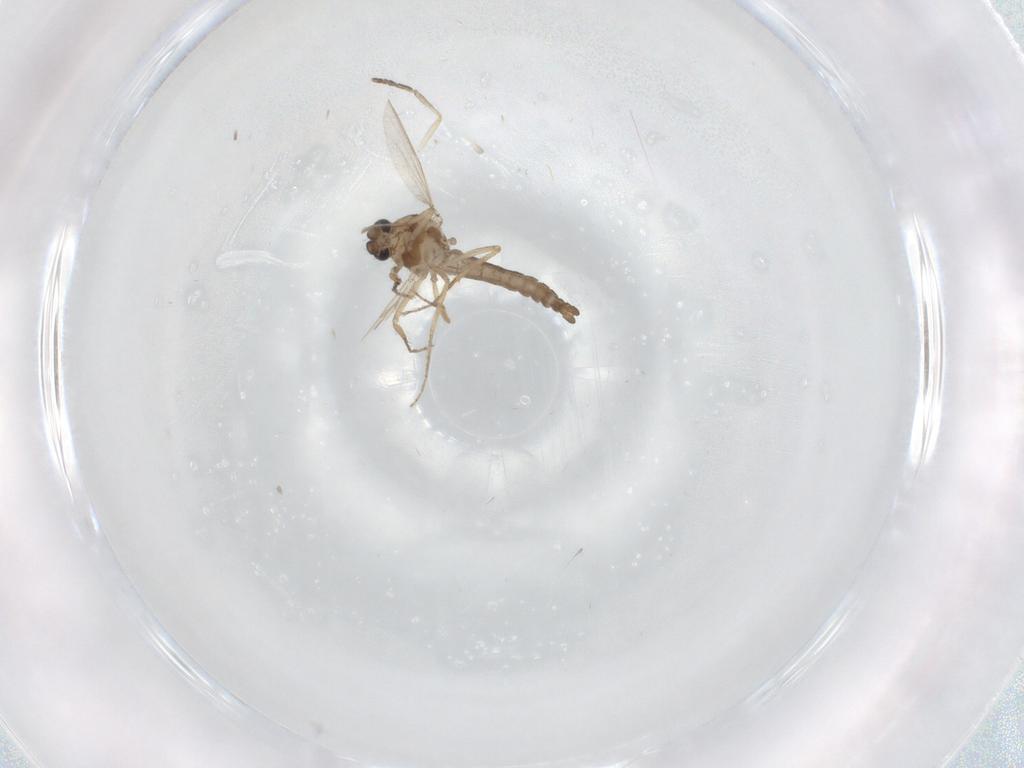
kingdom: Animalia
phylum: Arthropoda
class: Insecta
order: Diptera
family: Ceratopogonidae
